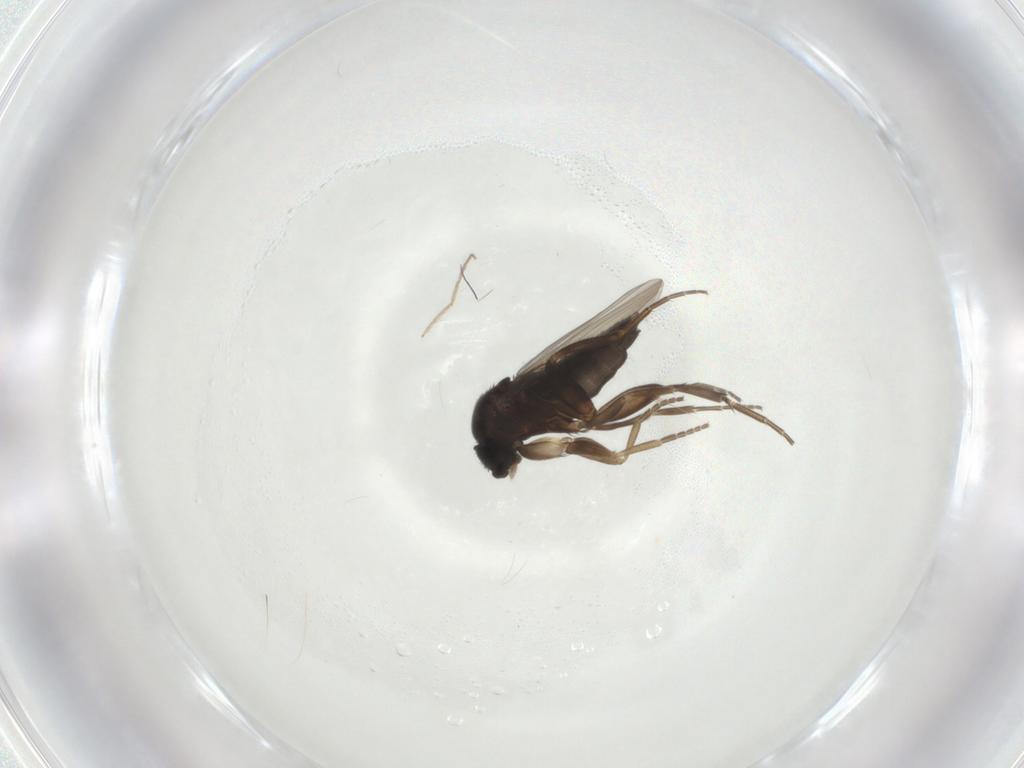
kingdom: Animalia
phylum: Arthropoda
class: Insecta
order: Diptera
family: Phoridae
